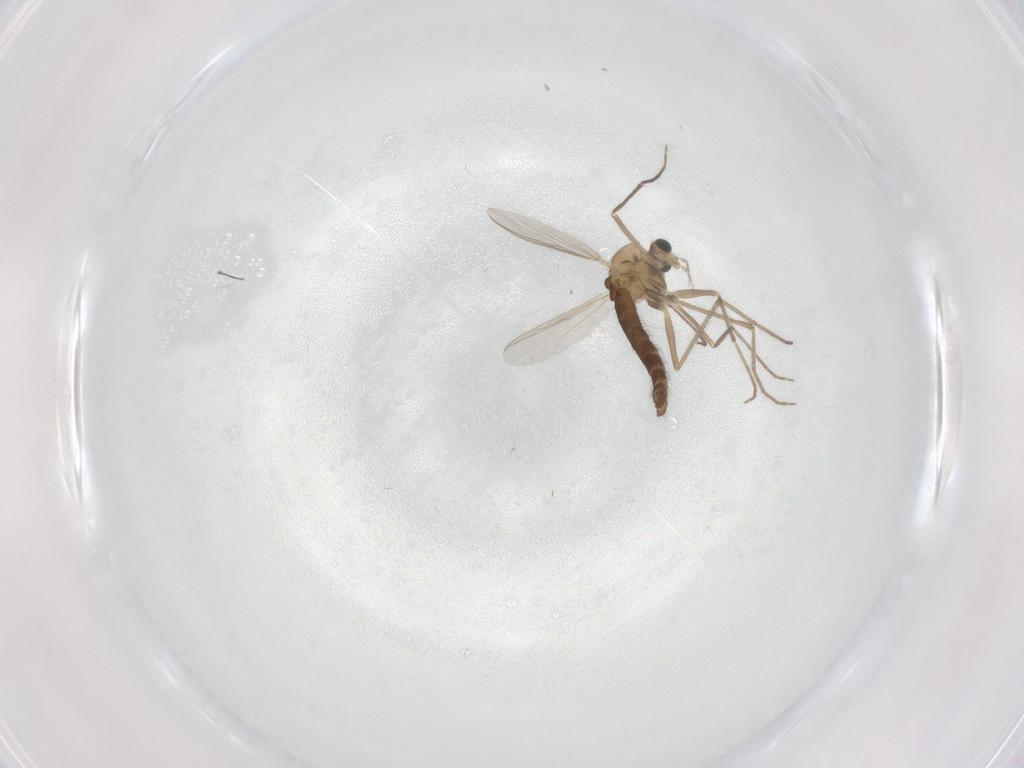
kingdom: Animalia
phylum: Arthropoda
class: Insecta
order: Diptera
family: Chironomidae
